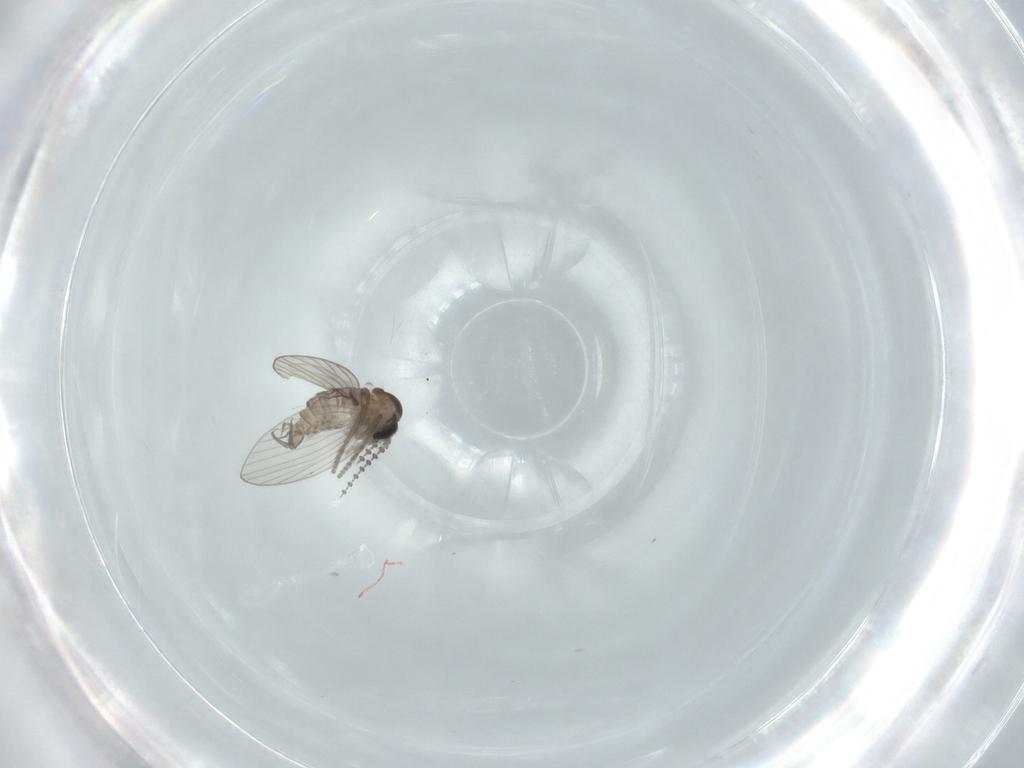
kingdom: Animalia
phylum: Arthropoda
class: Insecta
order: Diptera
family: Psychodidae
